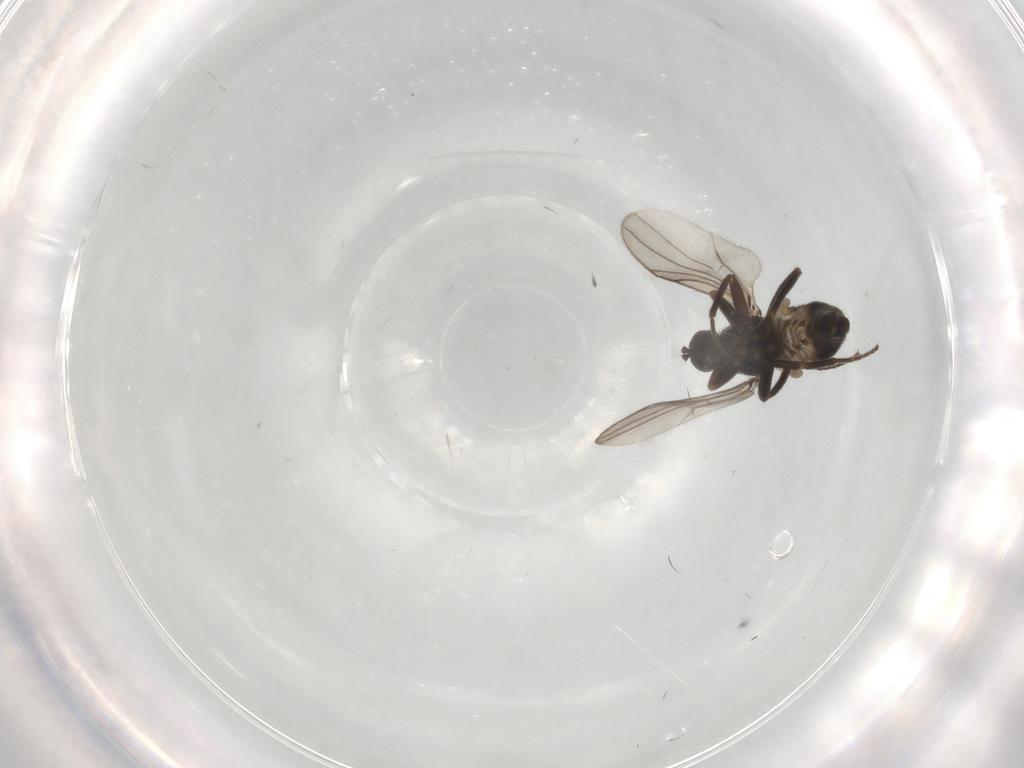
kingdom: Animalia
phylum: Arthropoda
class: Insecta
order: Diptera
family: Hybotidae
